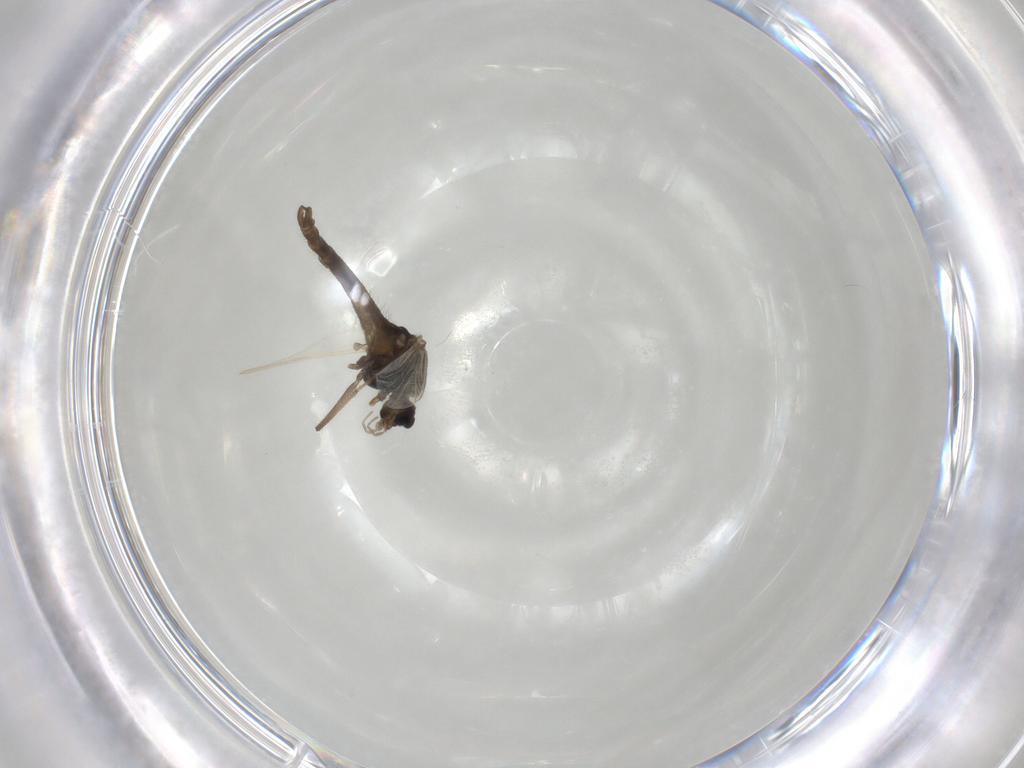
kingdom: Animalia
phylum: Arthropoda
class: Insecta
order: Diptera
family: Chironomidae
